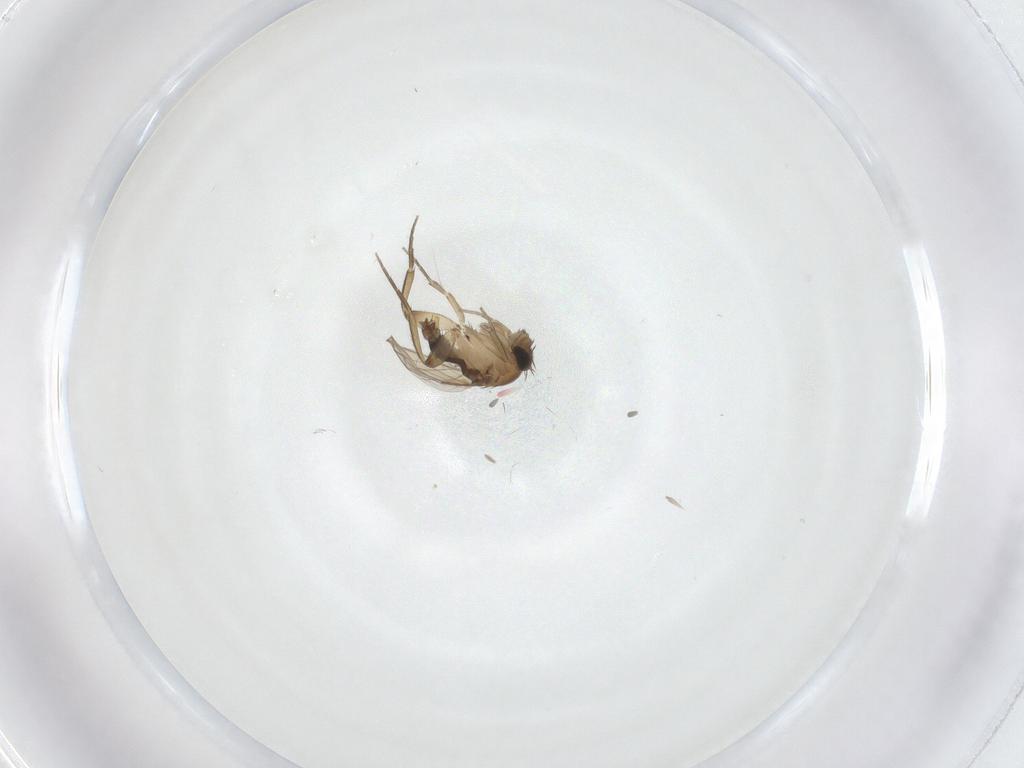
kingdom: Animalia
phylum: Arthropoda
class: Insecta
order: Diptera
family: Phoridae
